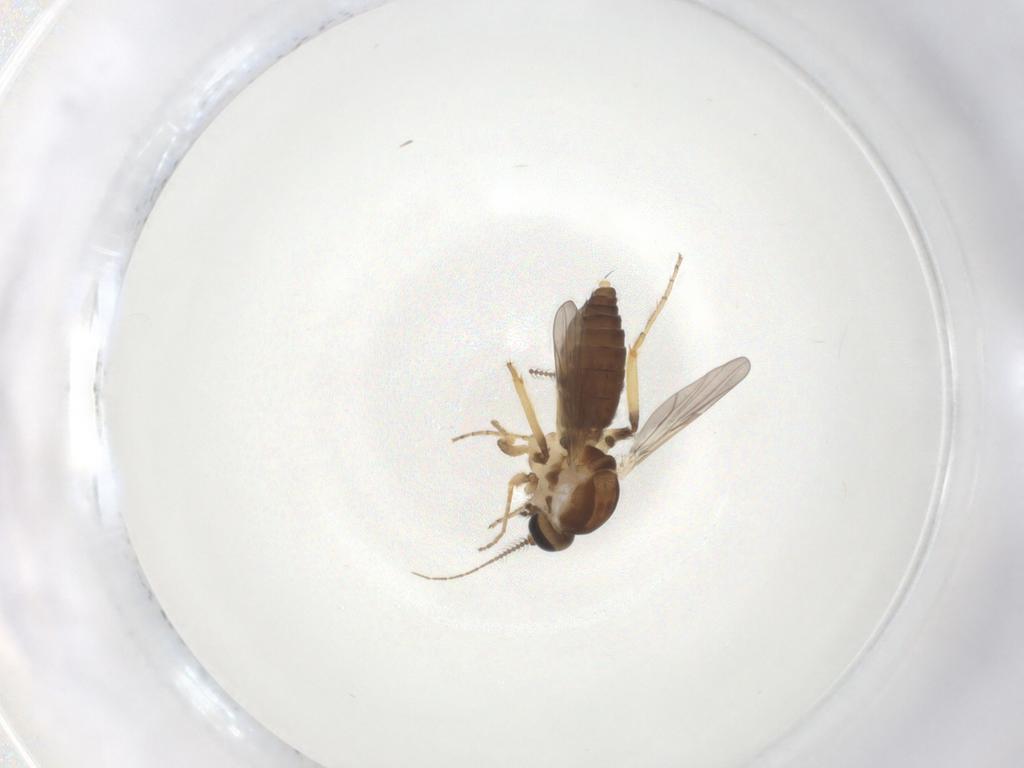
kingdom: Animalia
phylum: Arthropoda
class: Insecta
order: Diptera
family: Ceratopogonidae
